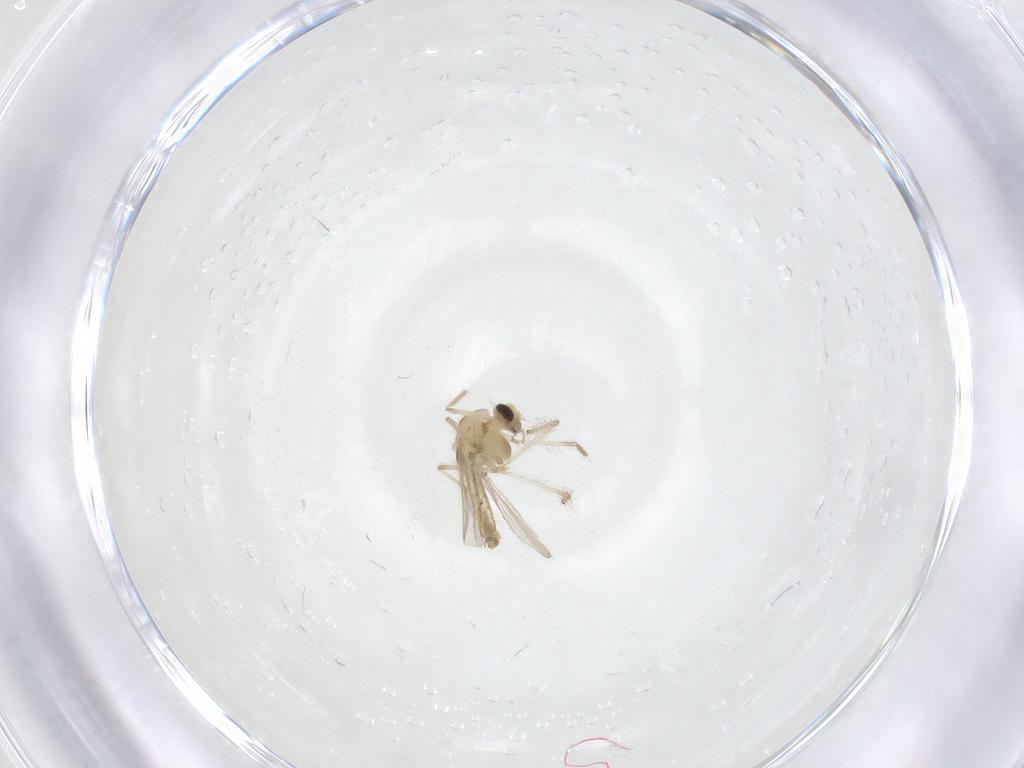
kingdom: Animalia
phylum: Arthropoda
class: Insecta
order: Diptera
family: Chironomidae
